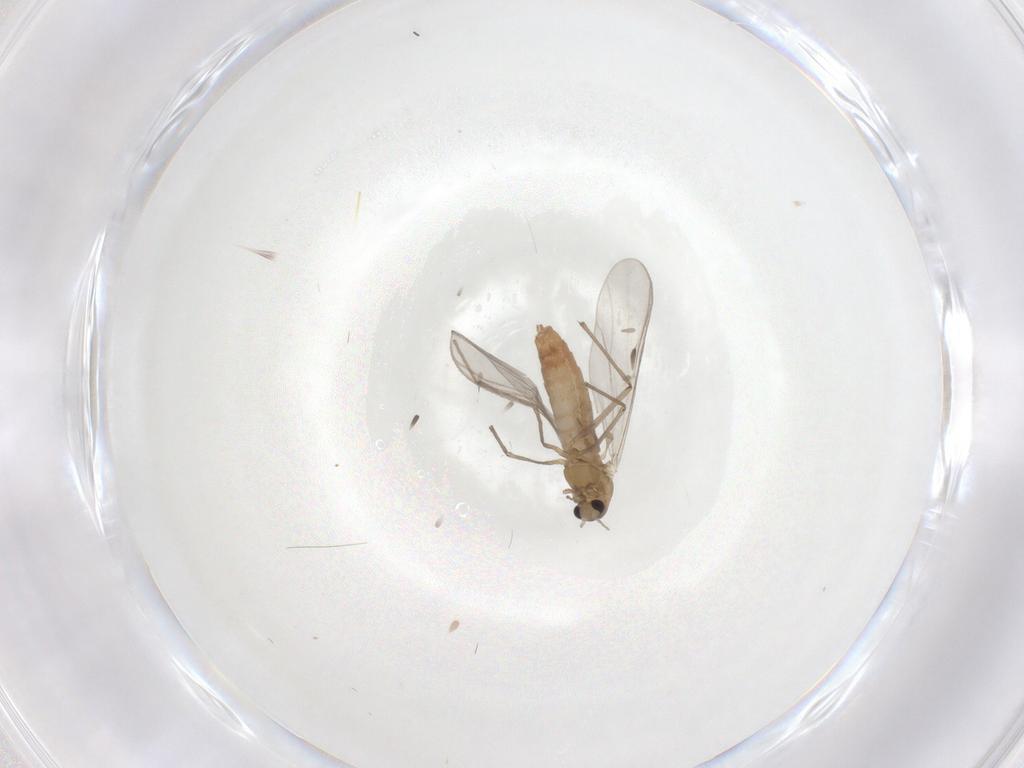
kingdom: Animalia
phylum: Arthropoda
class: Insecta
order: Diptera
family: Chironomidae
